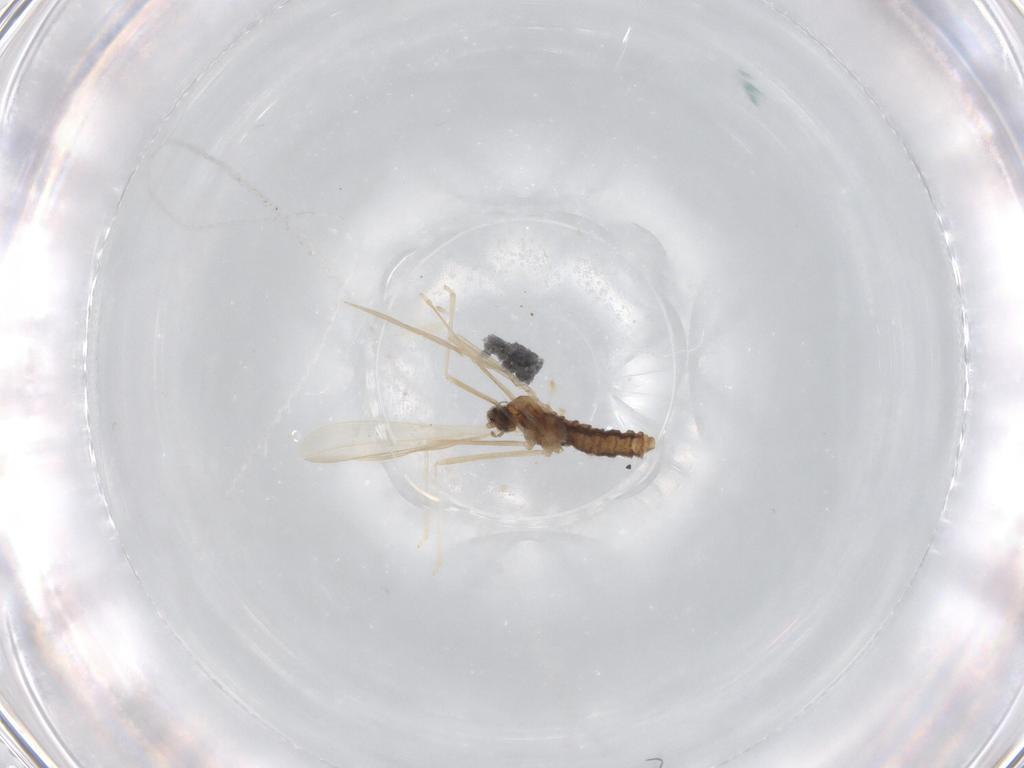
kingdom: Animalia
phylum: Arthropoda
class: Insecta
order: Diptera
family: Cecidomyiidae
